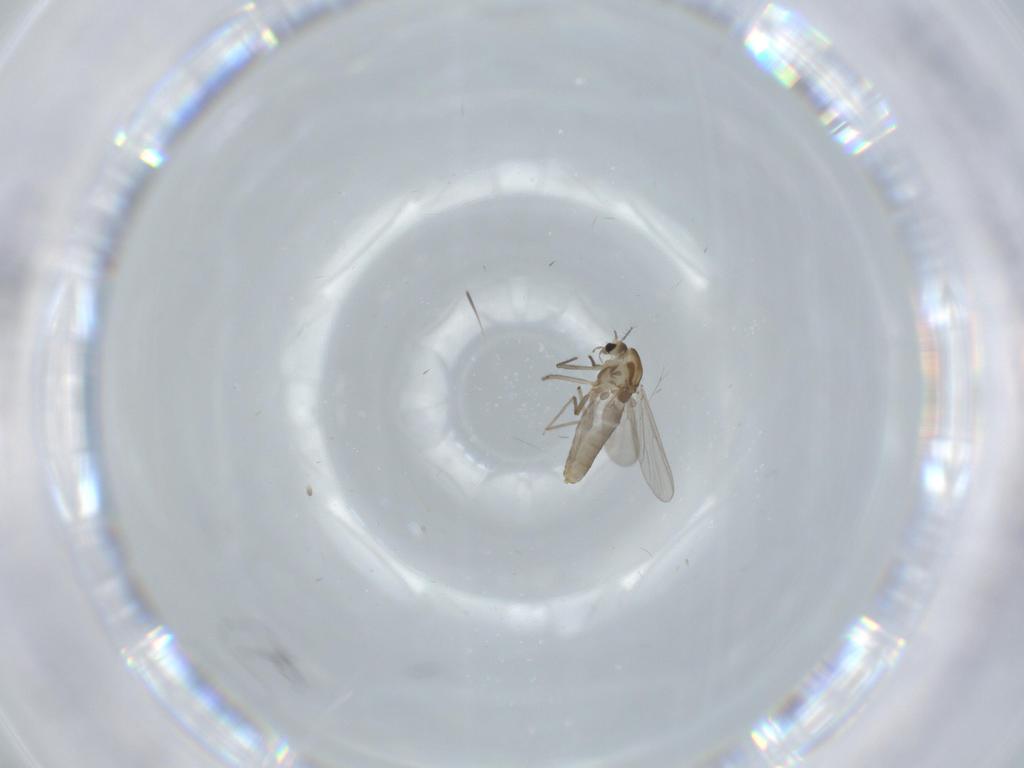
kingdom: Animalia
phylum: Arthropoda
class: Insecta
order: Diptera
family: Chironomidae
